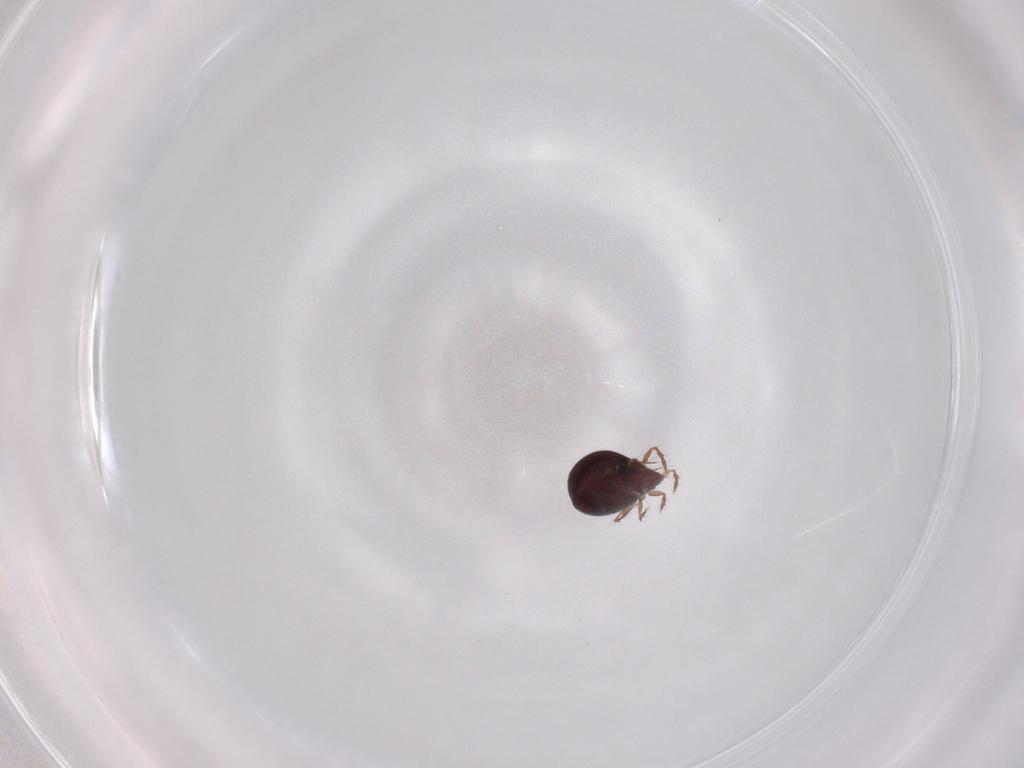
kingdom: Animalia
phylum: Arthropoda
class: Arachnida
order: Sarcoptiformes
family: Ceratoppiidae
